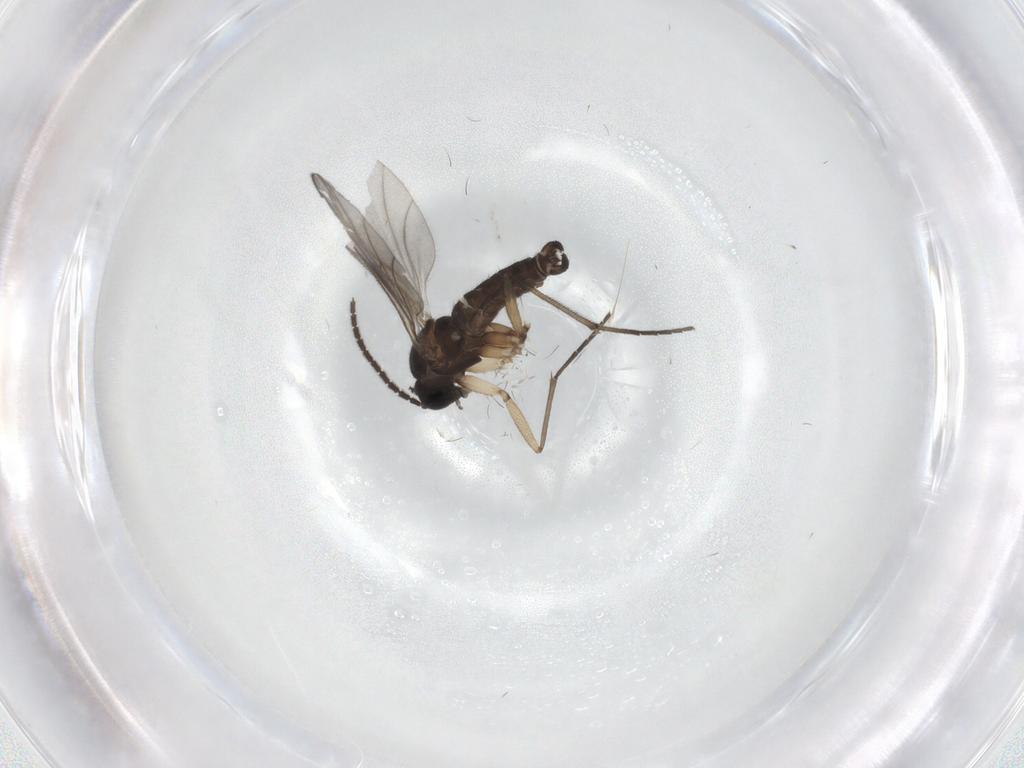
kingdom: Animalia
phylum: Arthropoda
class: Insecta
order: Diptera
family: Sciaridae
